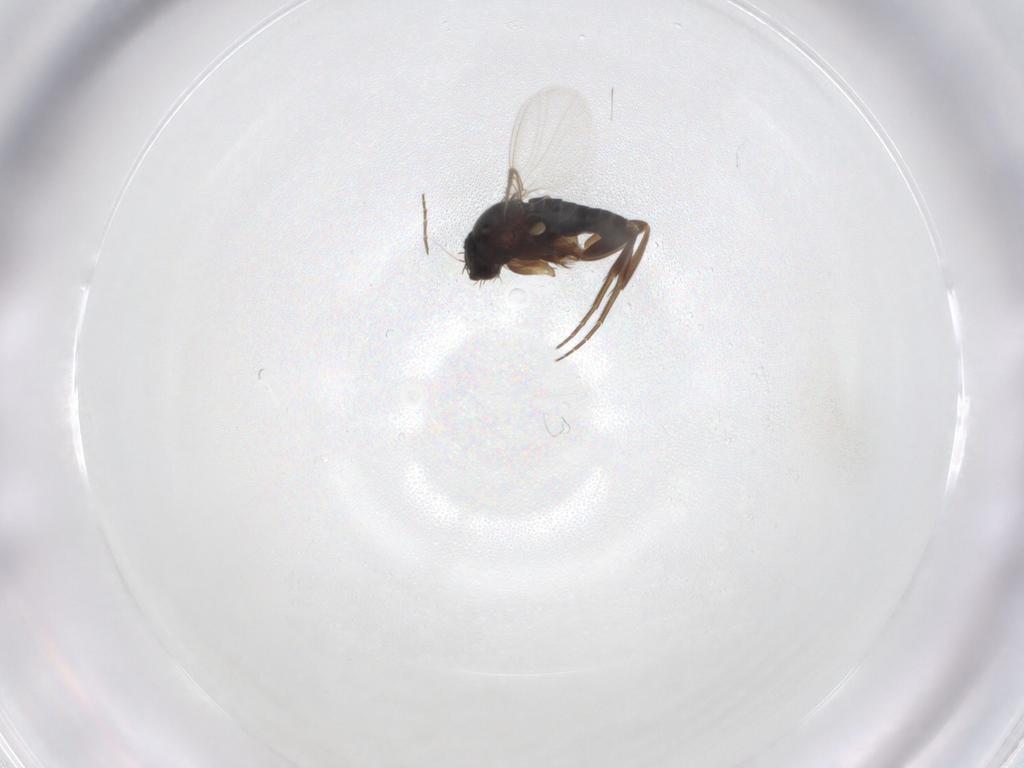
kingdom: Animalia
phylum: Arthropoda
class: Insecta
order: Diptera
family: Phoridae
